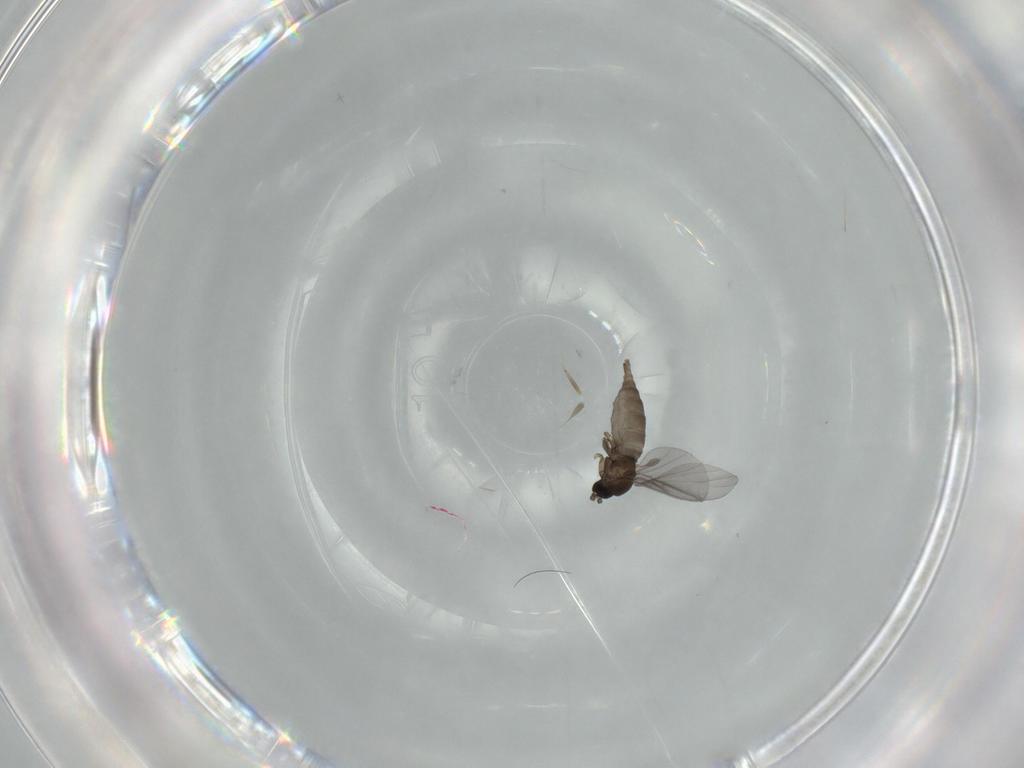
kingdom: Animalia
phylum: Arthropoda
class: Insecta
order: Diptera
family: Sciaridae
